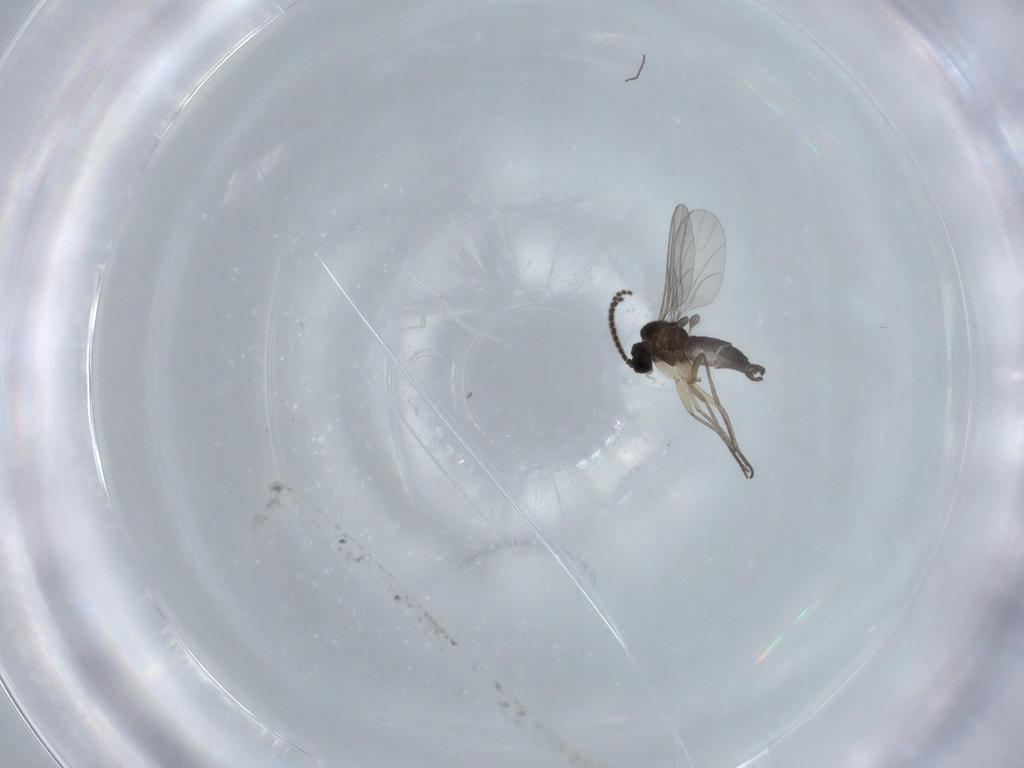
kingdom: Animalia
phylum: Arthropoda
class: Insecta
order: Diptera
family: Sciaridae
